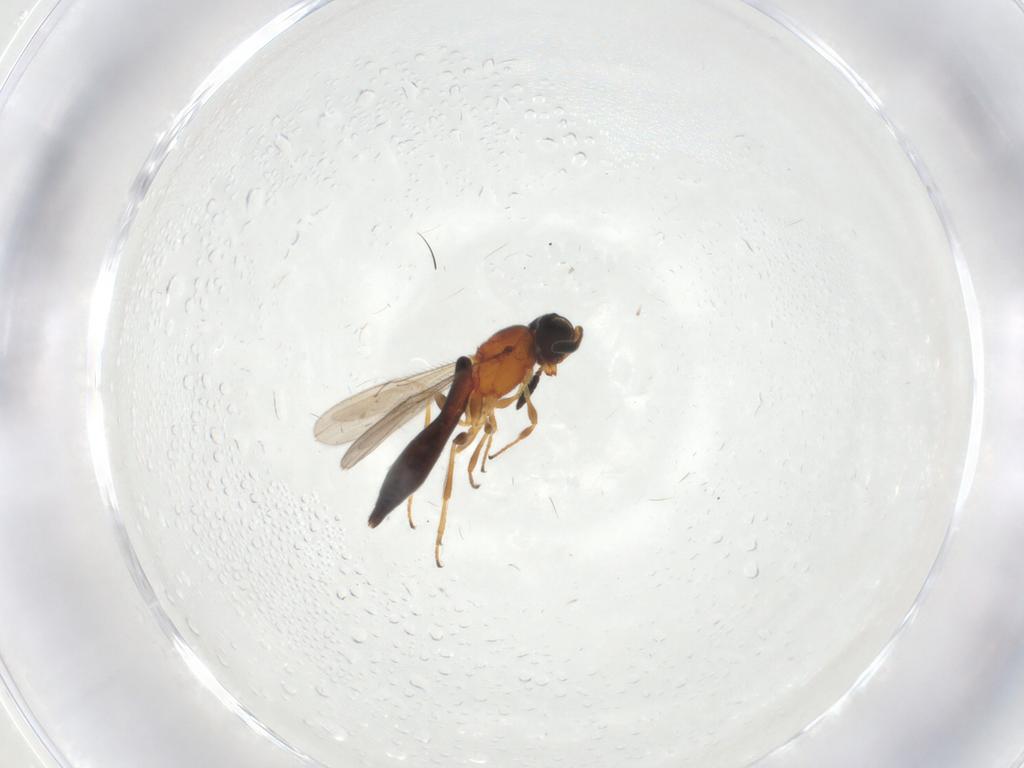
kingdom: Animalia
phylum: Arthropoda
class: Insecta
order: Hymenoptera
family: Scelionidae
